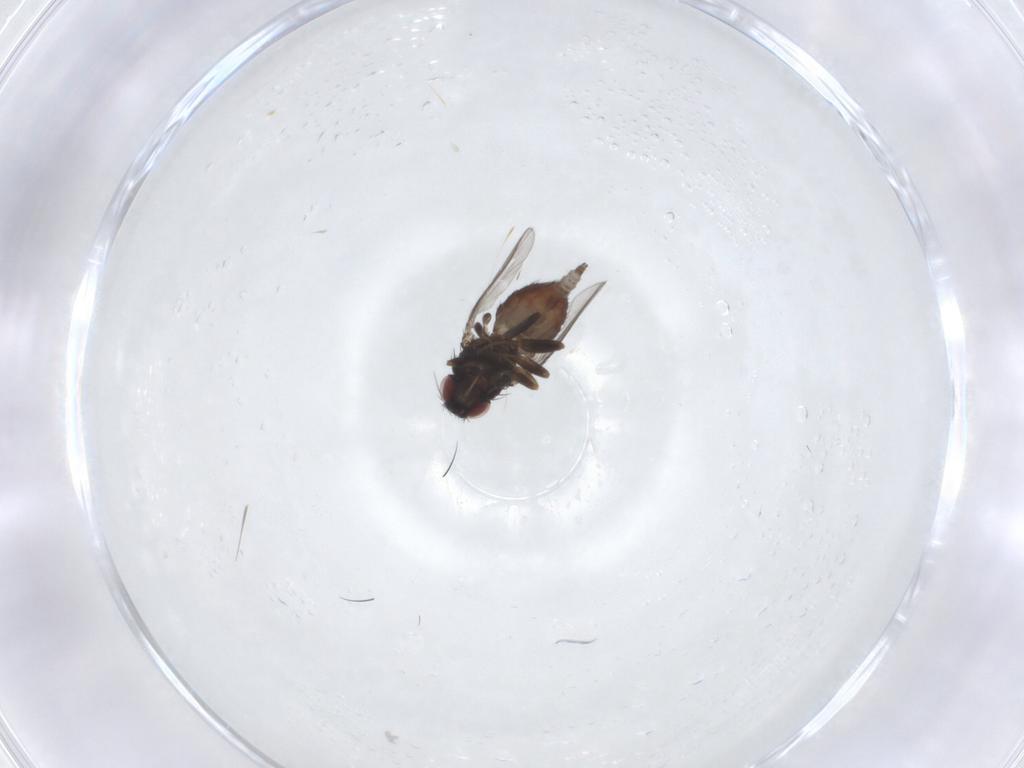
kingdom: Animalia
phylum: Arthropoda
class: Insecta
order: Diptera
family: Milichiidae
